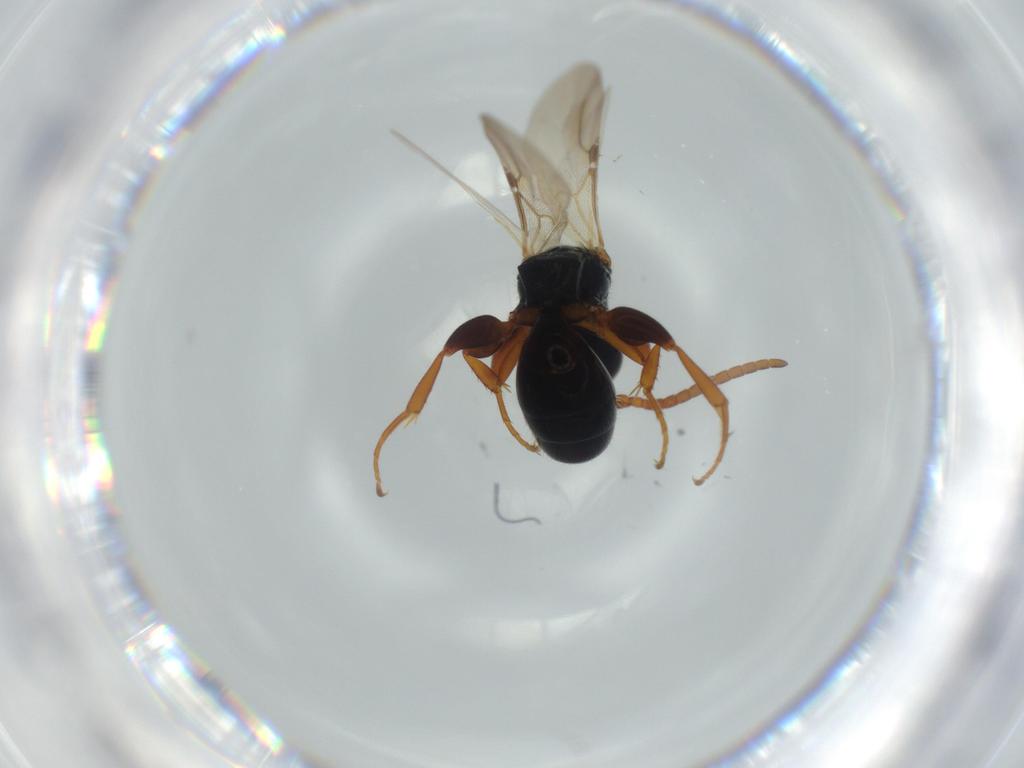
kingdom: Animalia
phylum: Arthropoda
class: Insecta
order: Hymenoptera
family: Bethylidae
